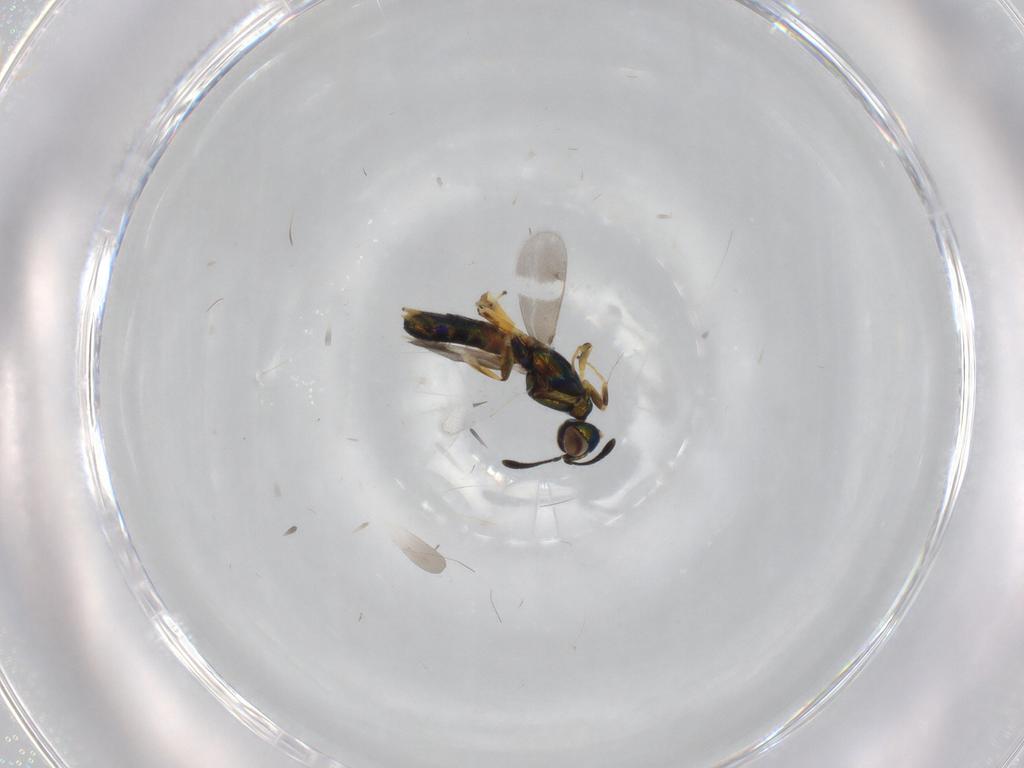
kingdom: Animalia
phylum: Arthropoda
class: Insecta
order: Hymenoptera
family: Eupelmidae
